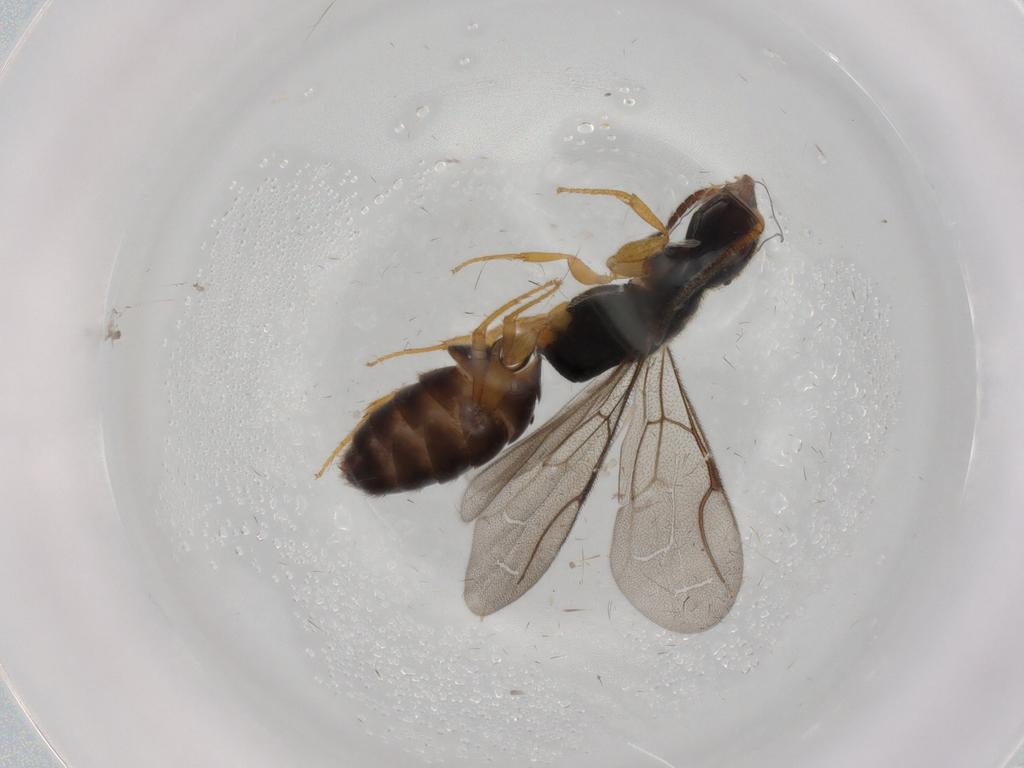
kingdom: Animalia
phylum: Arthropoda
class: Insecta
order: Hymenoptera
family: Bethylidae
